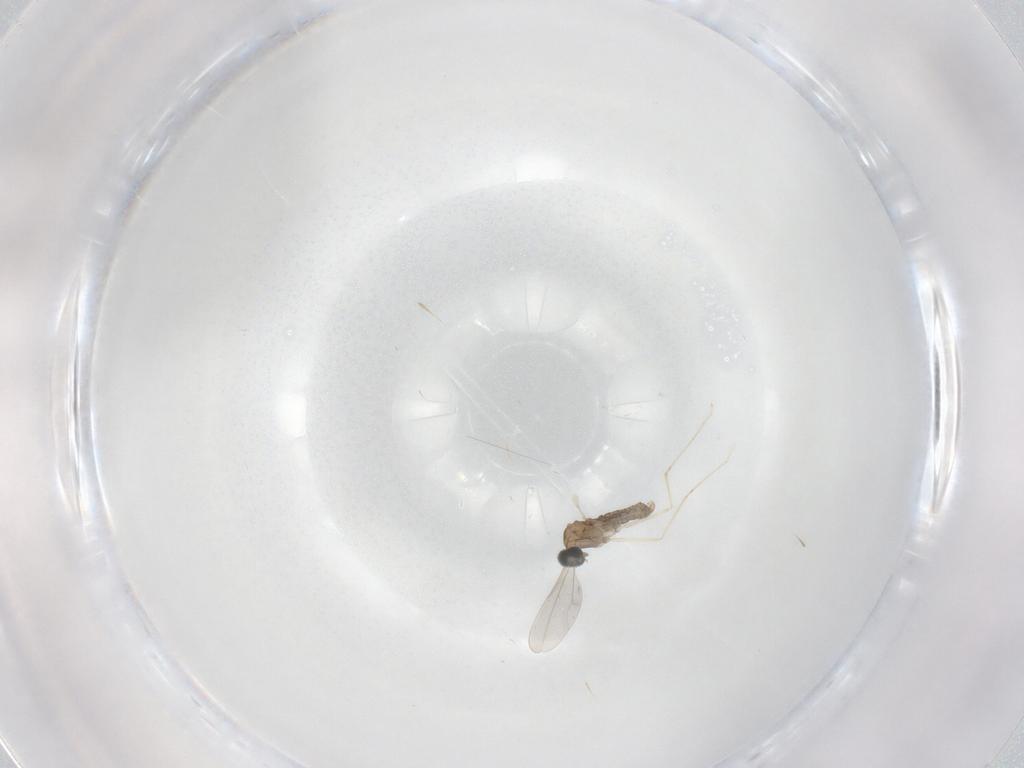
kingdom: Animalia
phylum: Arthropoda
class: Insecta
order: Diptera
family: Cecidomyiidae
